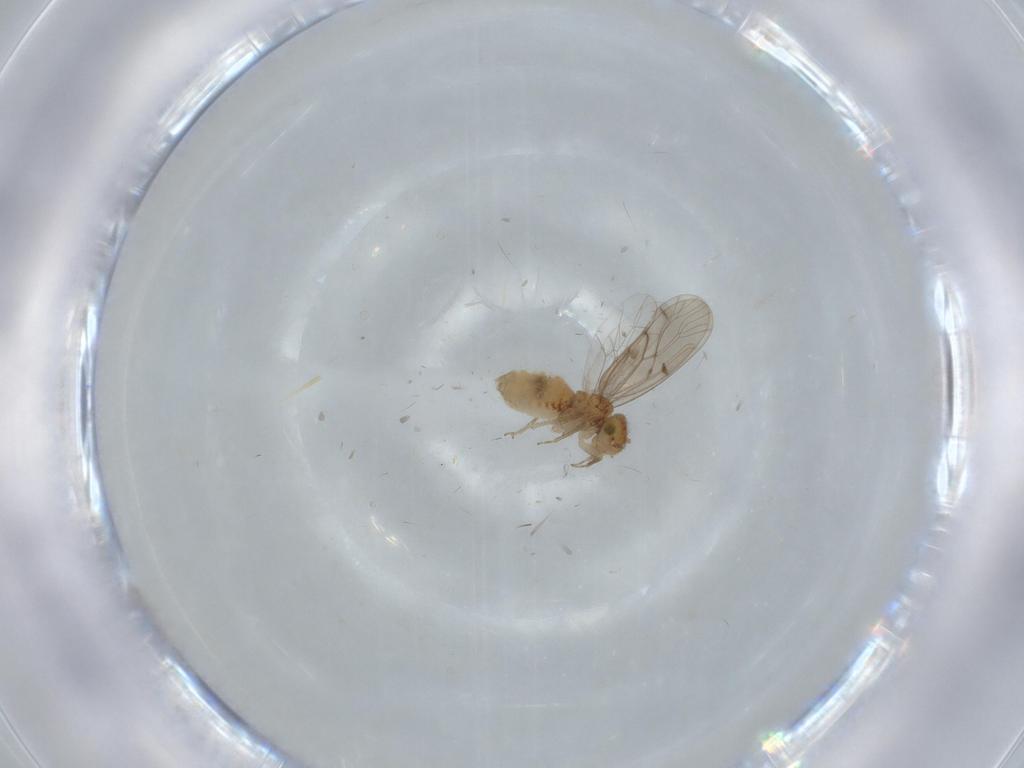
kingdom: Animalia
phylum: Arthropoda
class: Insecta
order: Psocodea
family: Ectopsocidae
